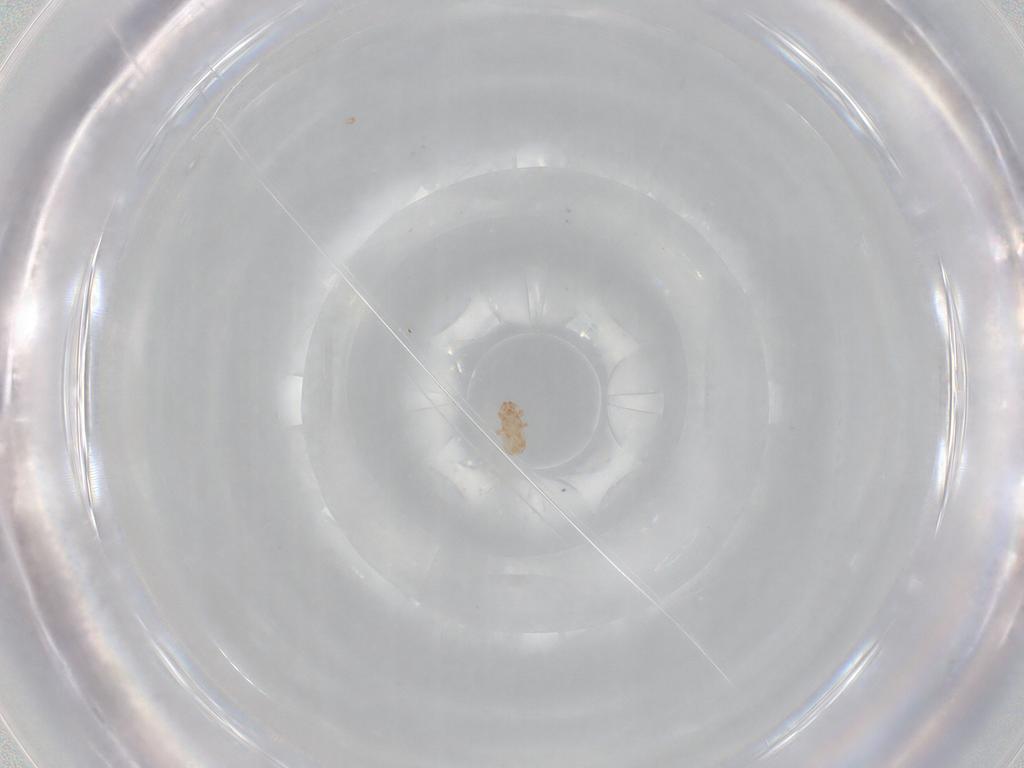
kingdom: Animalia
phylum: Arthropoda
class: Arachnida
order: Mesostigmata
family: Ascidae
